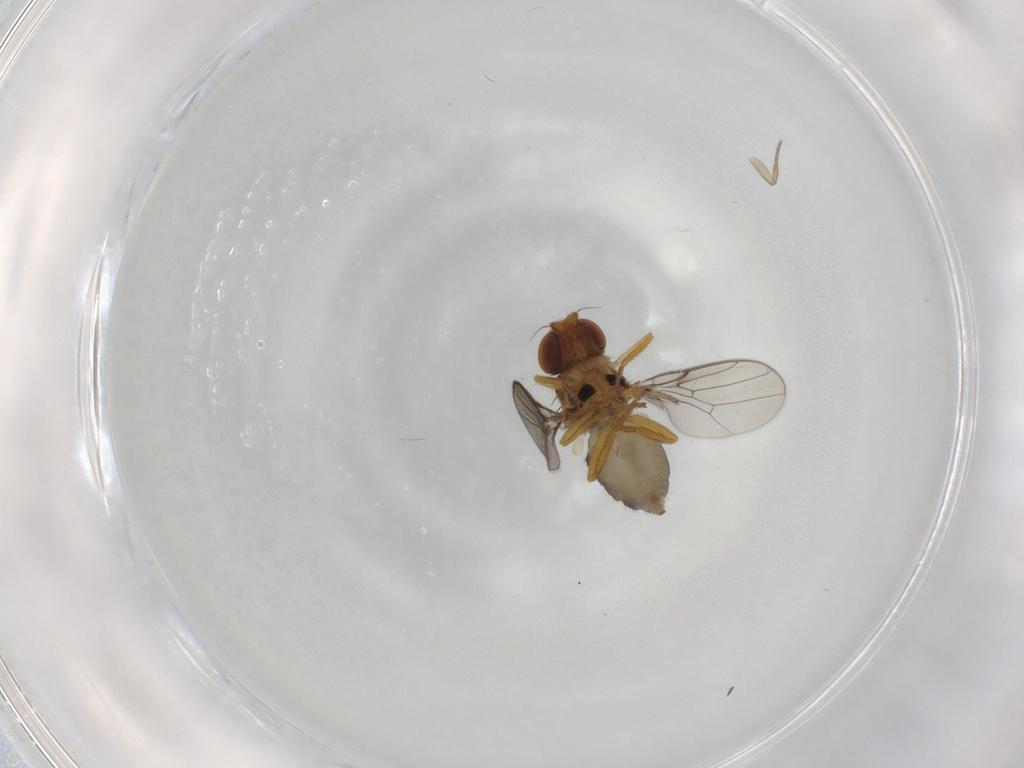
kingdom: Animalia
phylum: Arthropoda
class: Insecta
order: Diptera
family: Chloropidae
